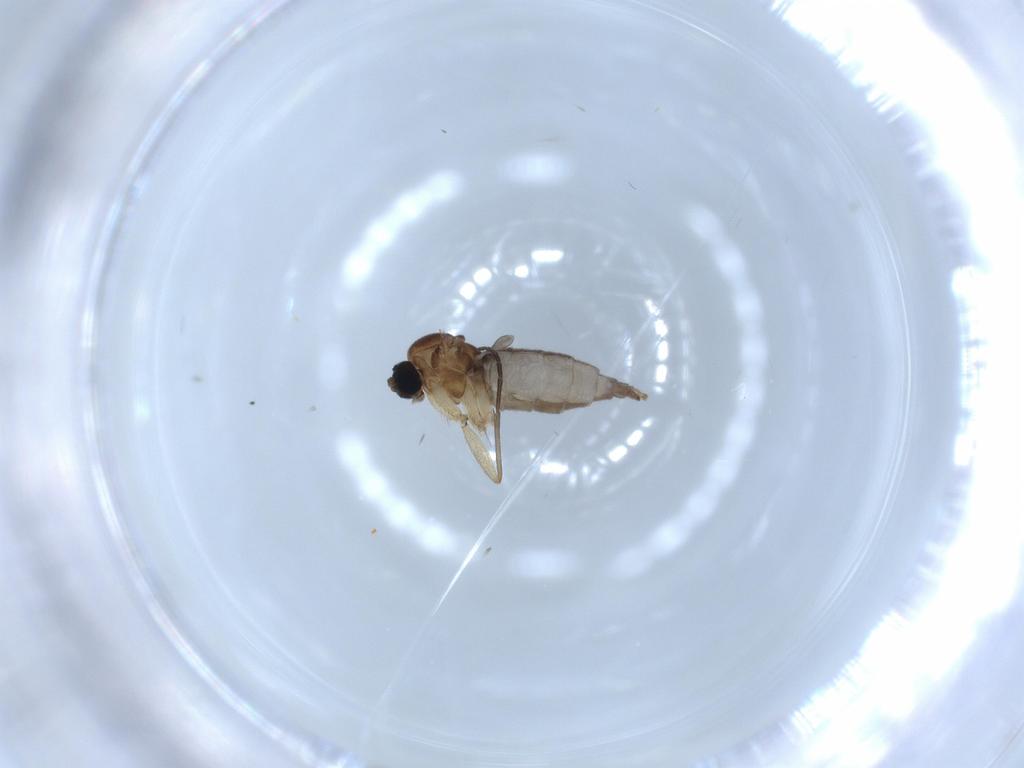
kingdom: Animalia
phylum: Arthropoda
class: Insecta
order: Diptera
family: Sciaridae
